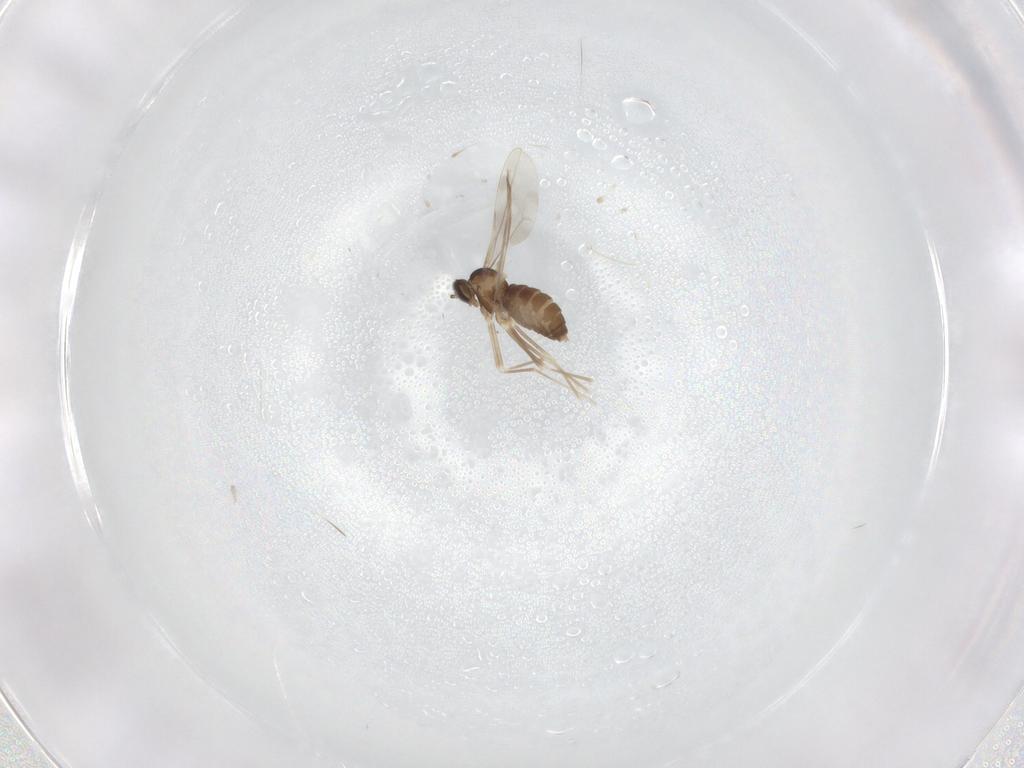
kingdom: Animalia
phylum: Arthropoda
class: Insecta
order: Diptera
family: Cecidomyiidae
